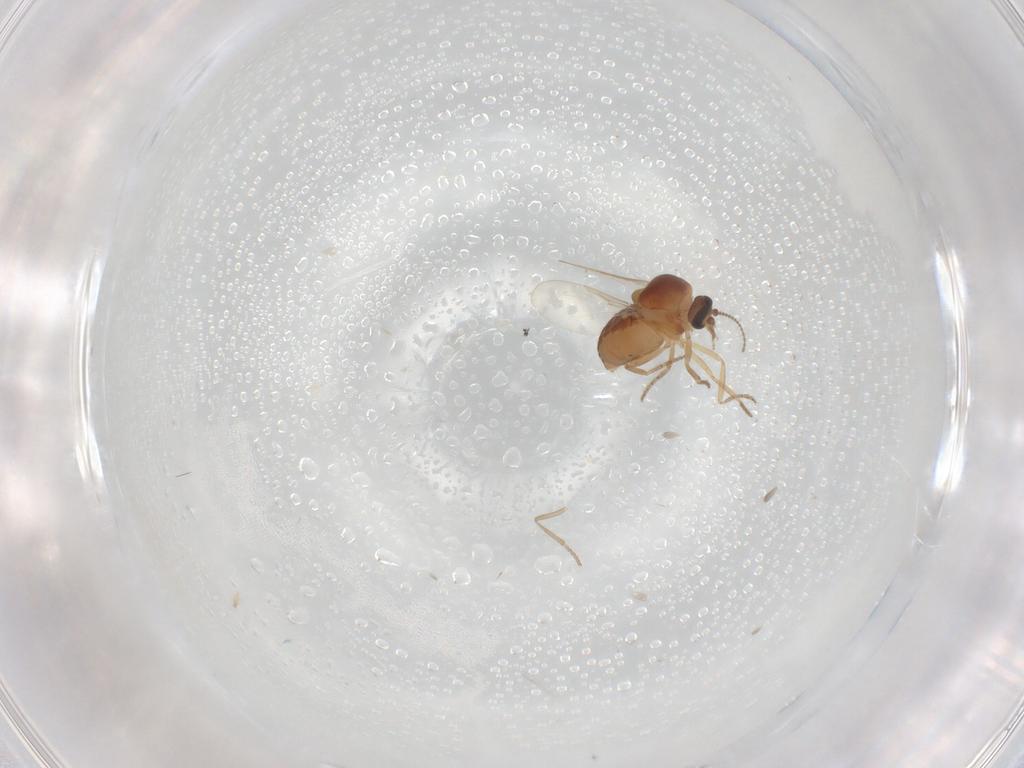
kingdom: Animalia
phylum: Arthropoda
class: Insecta
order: Diptera
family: Ceratopogonidae
